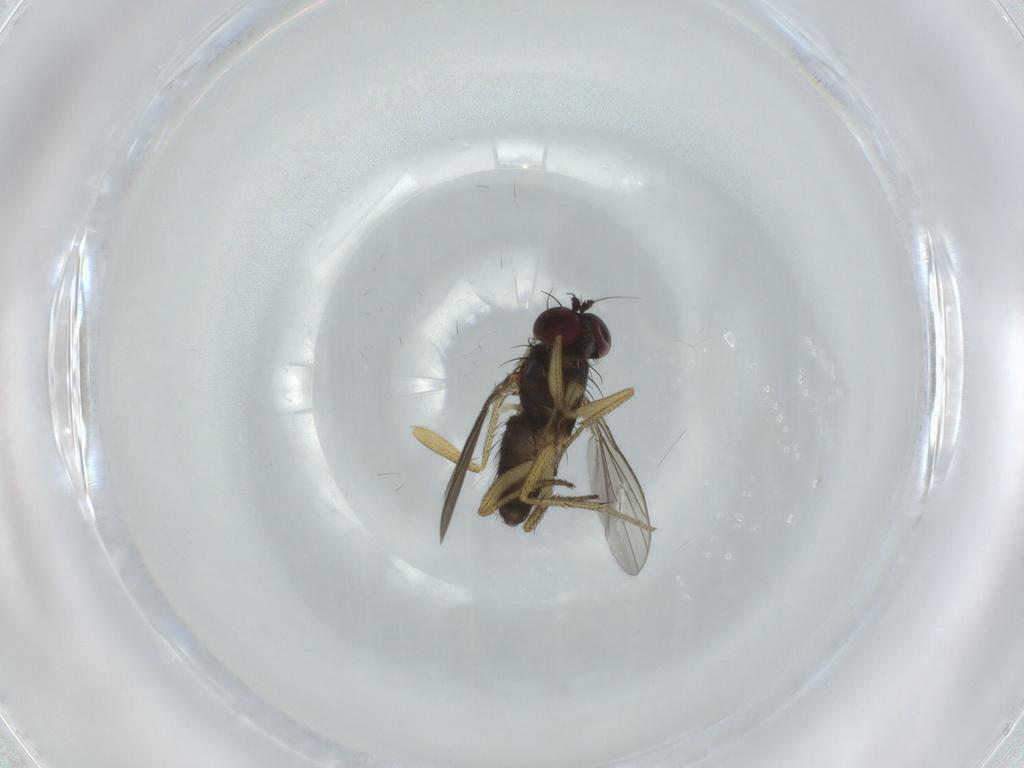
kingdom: Animalia
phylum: Arthropoda
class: Insecta
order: Diptera
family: Dolichopodidae
